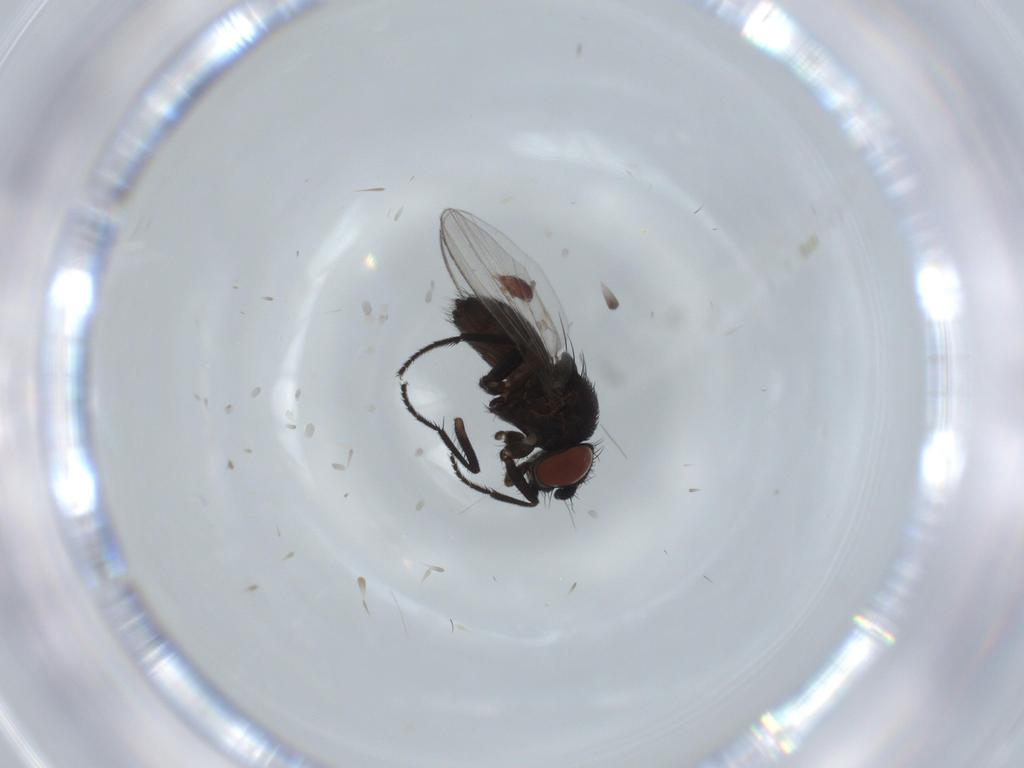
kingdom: Animalia
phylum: Arthropoda
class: Insecta
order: Diptera
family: Milichiidae
